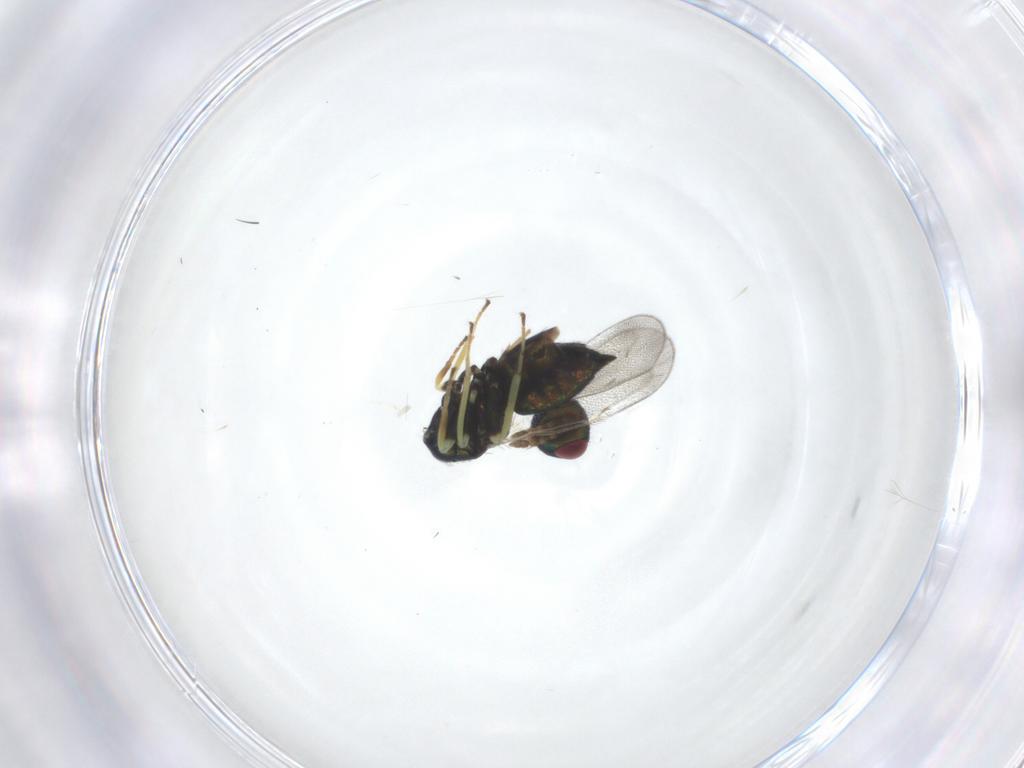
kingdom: Animalia
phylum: Arthropoda
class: Insecta
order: Hymenoptera
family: Eulophidae
